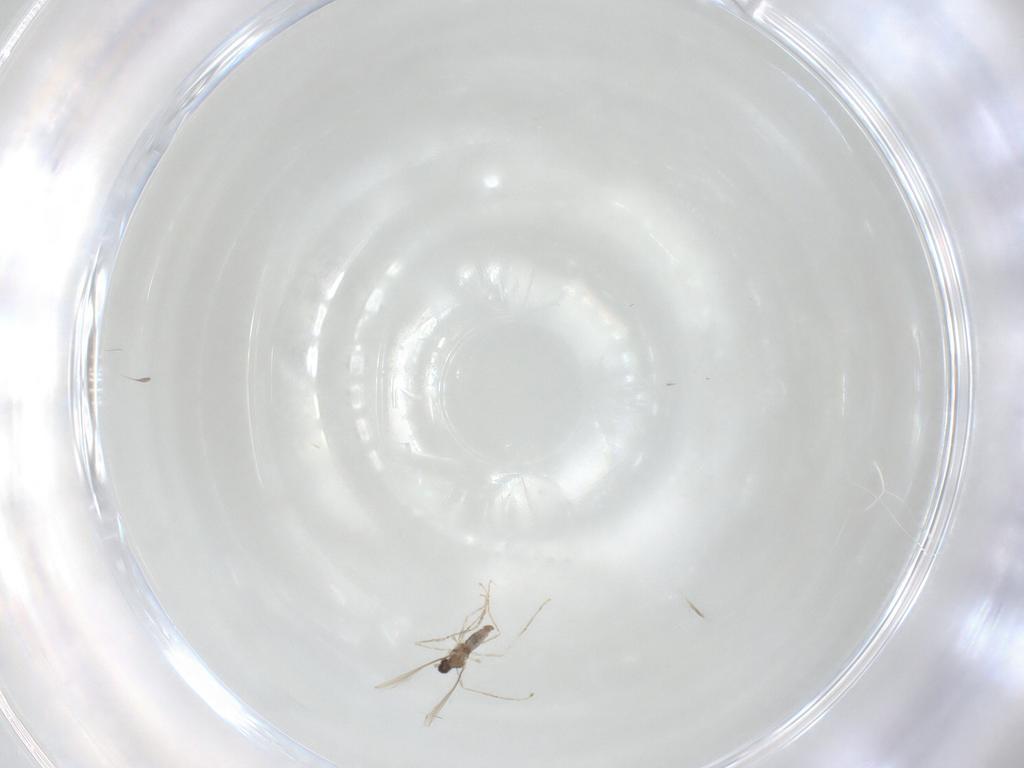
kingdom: Animalia
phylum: Arthropoda
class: Insecta
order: Diptera
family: Cecidomyiidae
